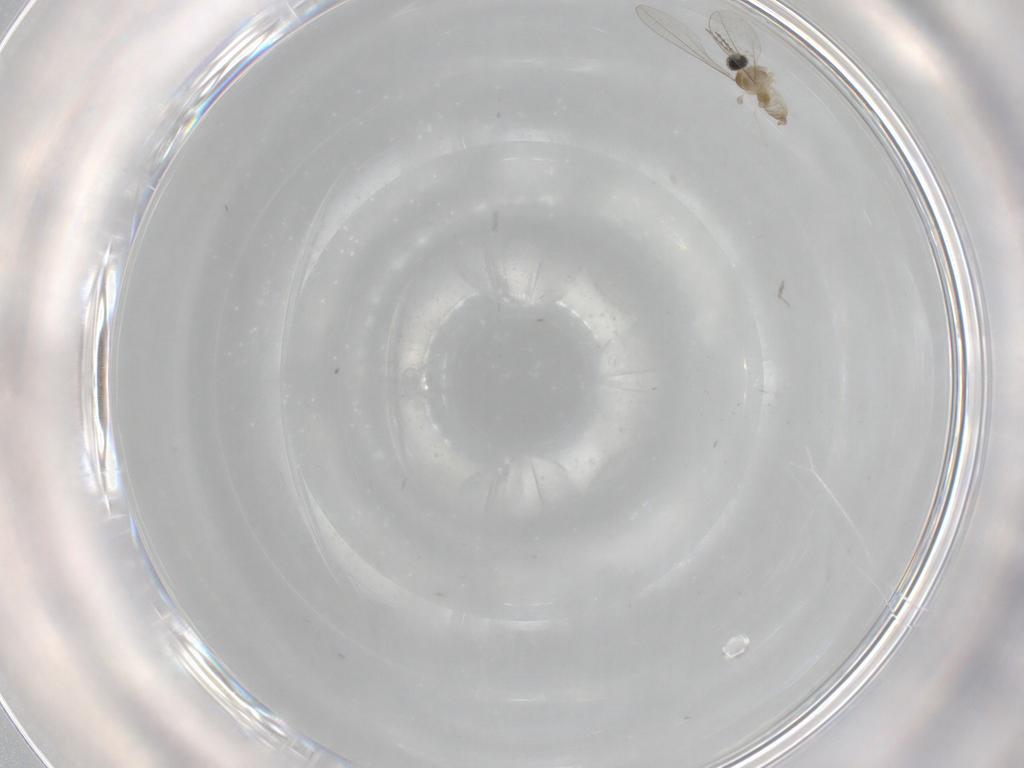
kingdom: Animalia
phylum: Arthropoda
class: Insecta
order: Diptera
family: Cecidomyiidae
